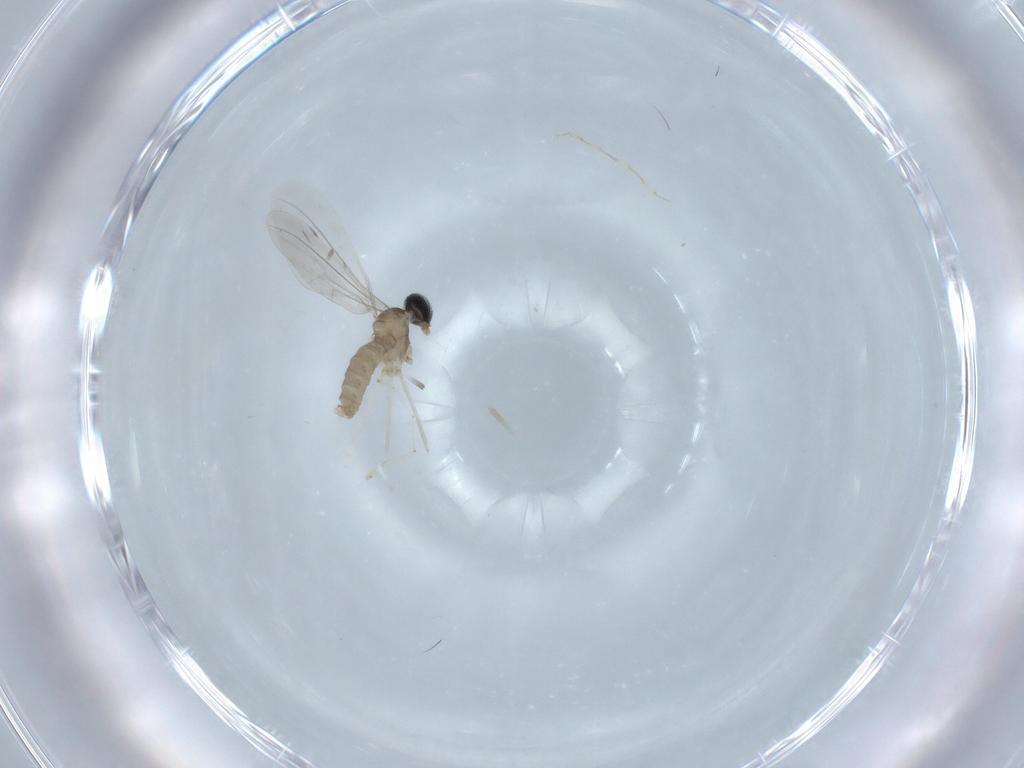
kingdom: Animalia
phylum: Arthropoda
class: Insecta
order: Diptera
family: Cecidomyiidae
